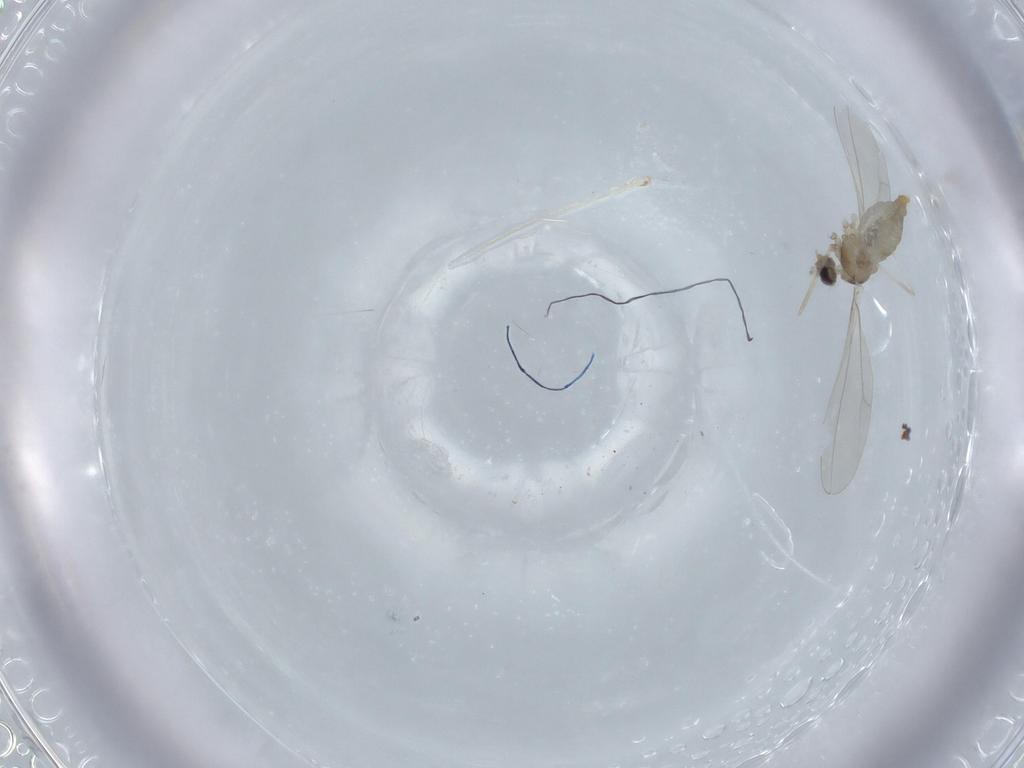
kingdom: Animalia
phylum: Arthropoda
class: Insecta
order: Diptera
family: Cecidomyiidae
